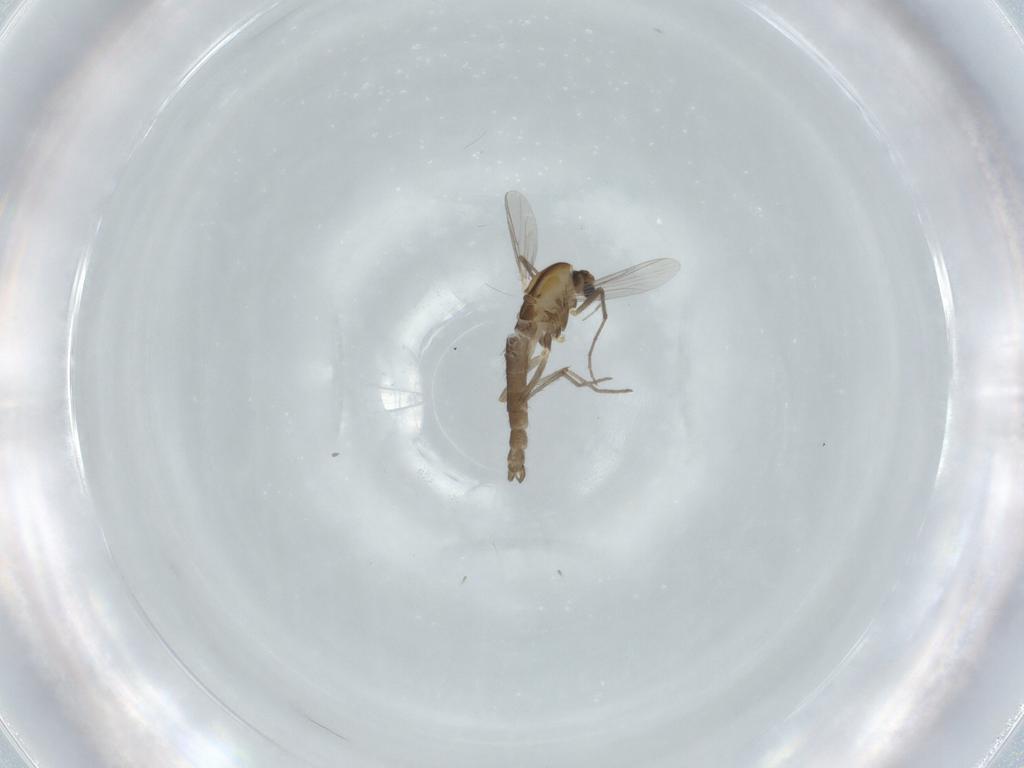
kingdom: Animalia
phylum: Arthropoda
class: Insecta
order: Diptera
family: Chironomidae
